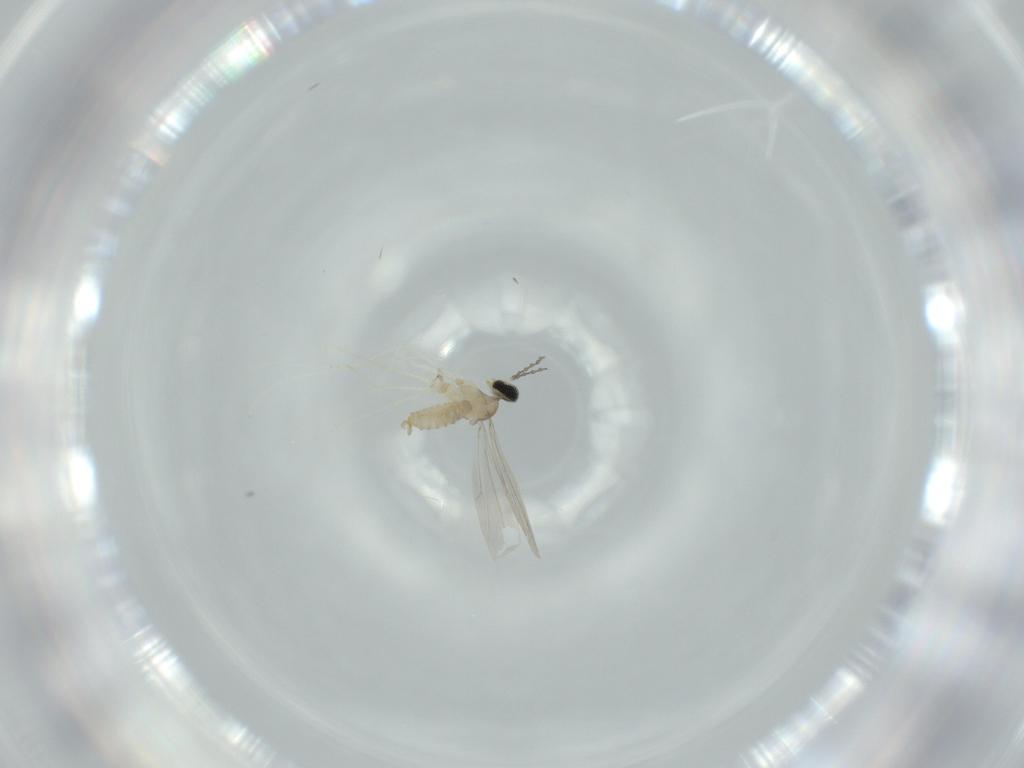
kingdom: Animalia
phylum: Arthropoda
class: Insecta
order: Diptera
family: Cecidomyiidae
